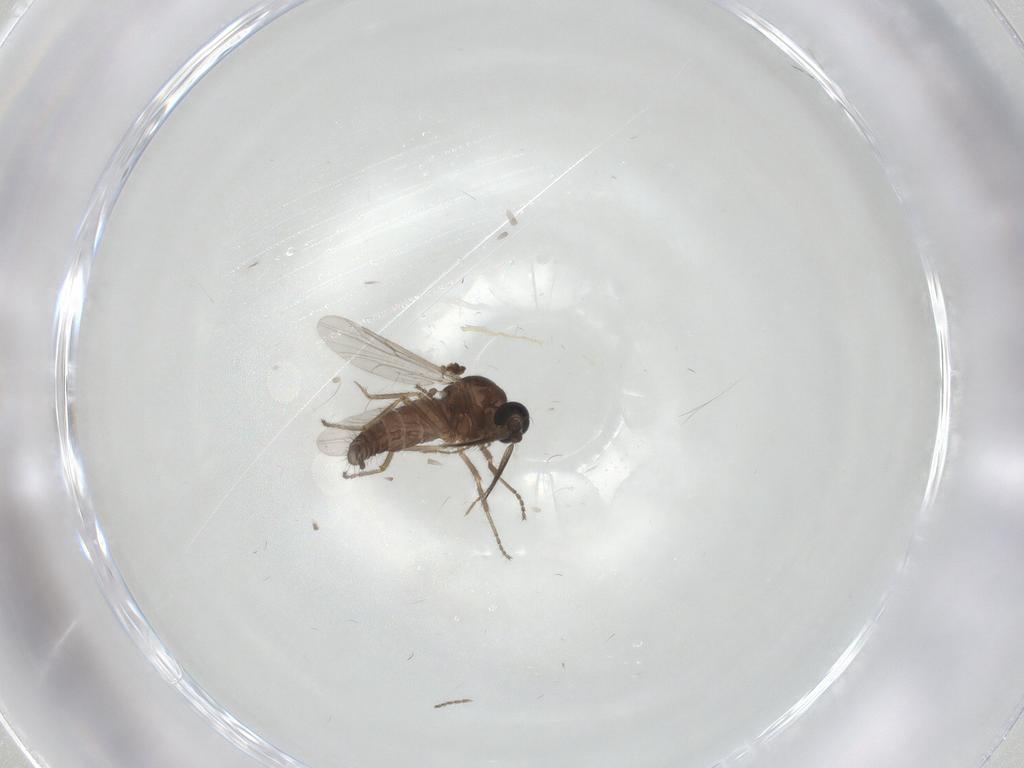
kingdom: Animalia
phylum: Arthropoda
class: Insecta
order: Diptera
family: Ceratopogonidae
